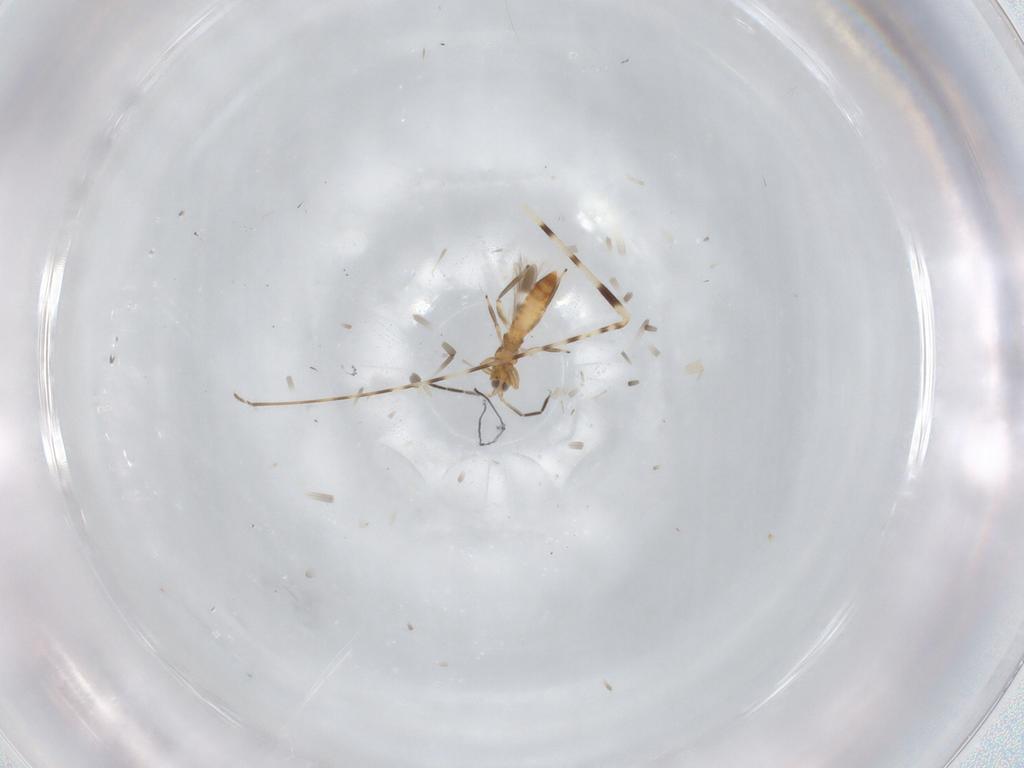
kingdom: Animalia
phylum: Arthropoda
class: Insecta
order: Thysanoptera
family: Aeolothripidae
